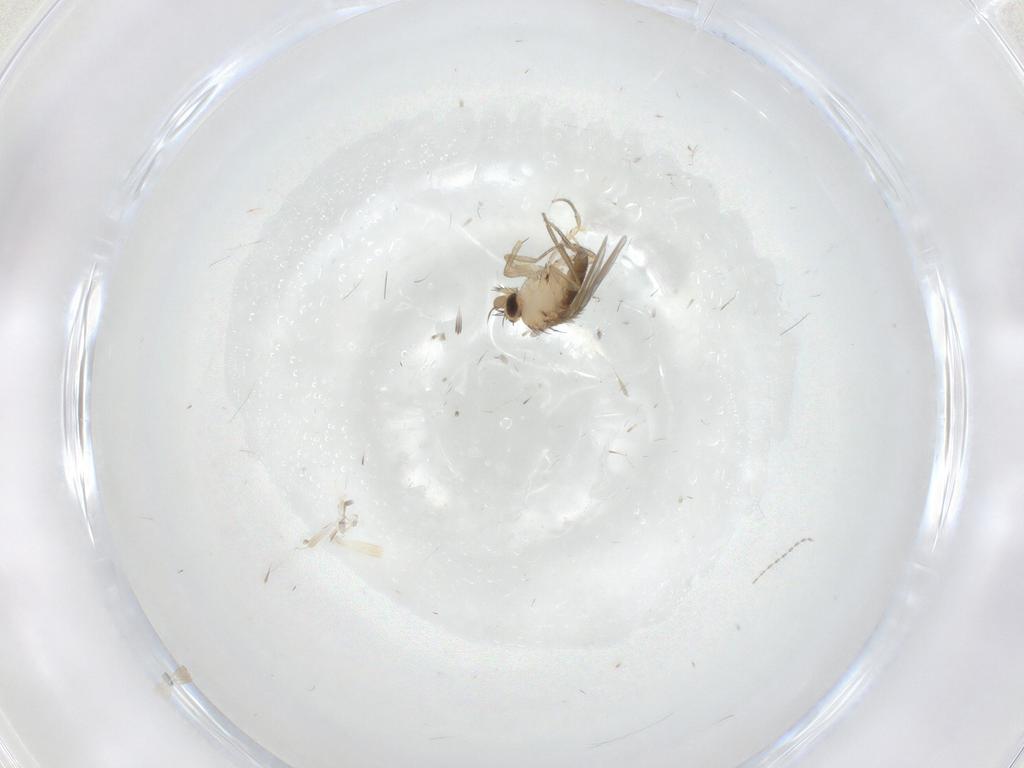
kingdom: Animalia
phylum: Arthropoda
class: Insecta
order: Diptera
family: Phoridae
